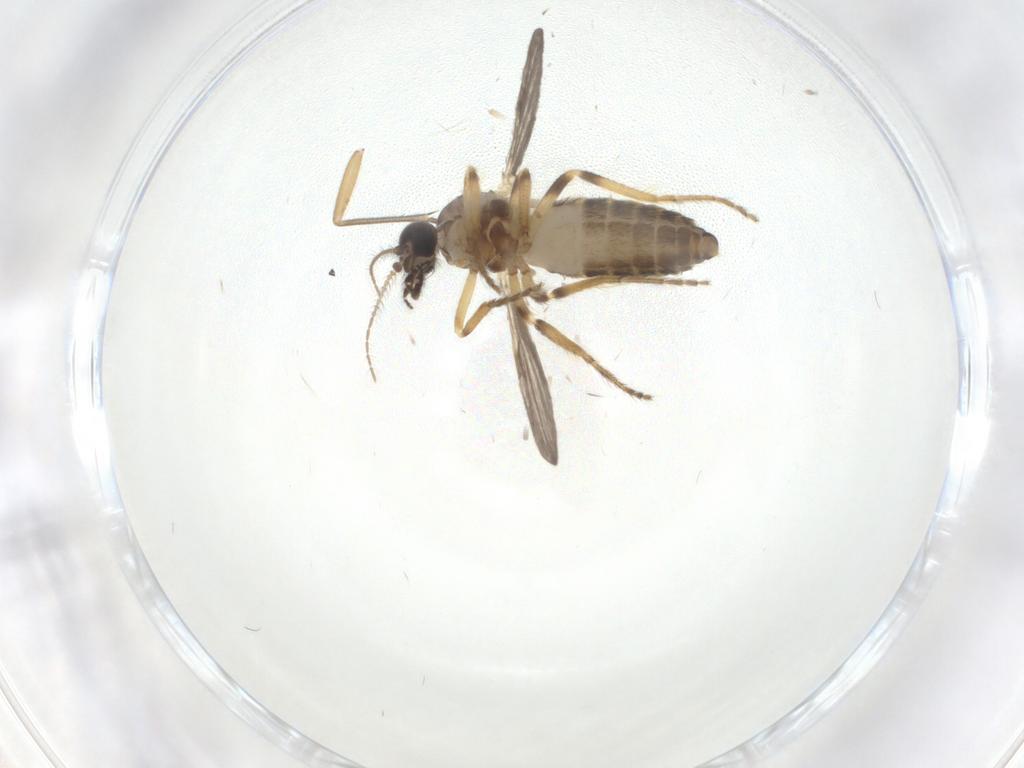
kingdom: Animalia
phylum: Arthropoda
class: Insecta
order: Diptera
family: Ceratopogonidae
